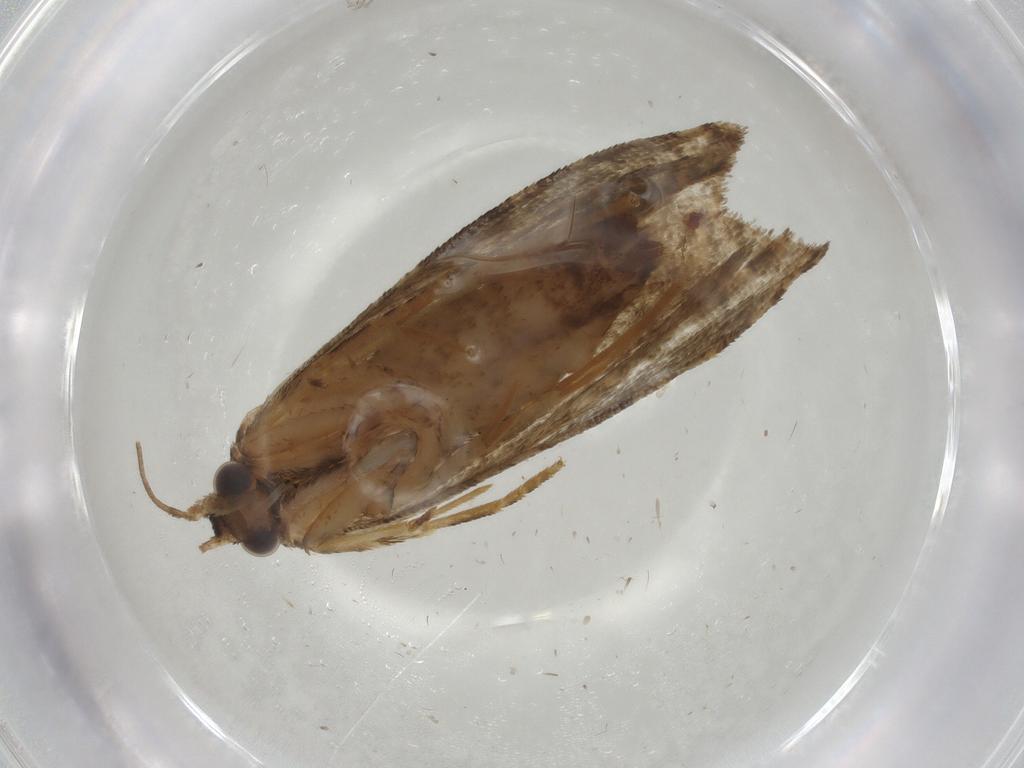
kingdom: Animalia
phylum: Arthropoda
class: Insecta
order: Lepidoptera
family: Tortricidae
